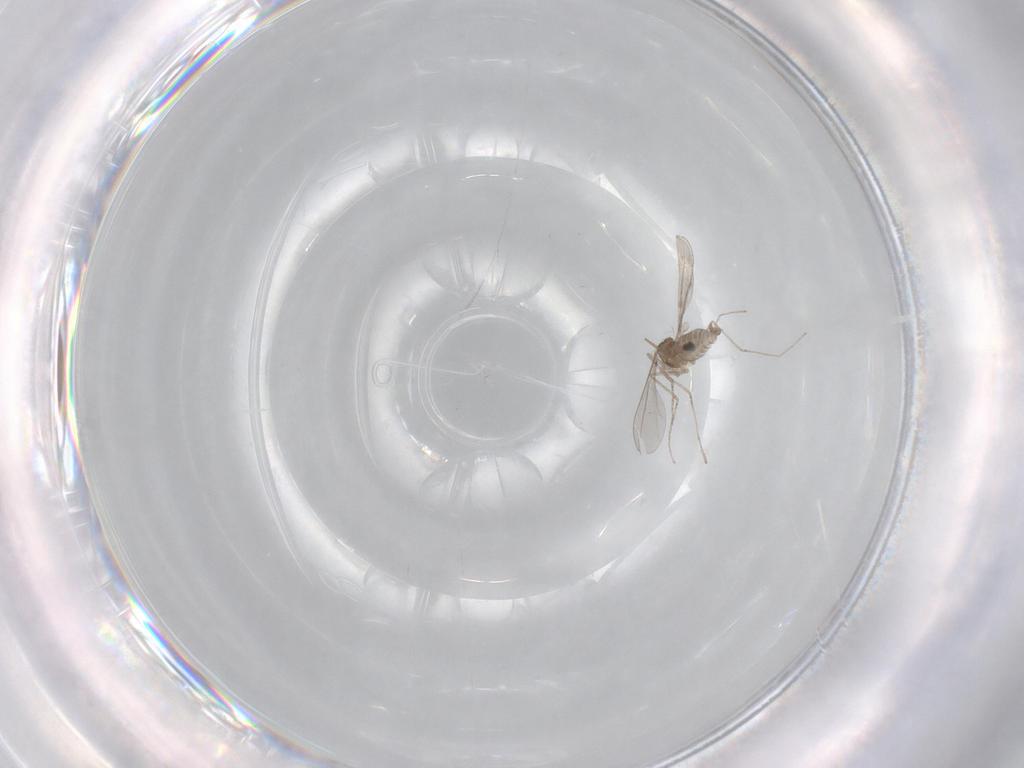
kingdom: Animalia
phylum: Arthropoda
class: Insecta
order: Diptera
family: Ceratopogonidae
